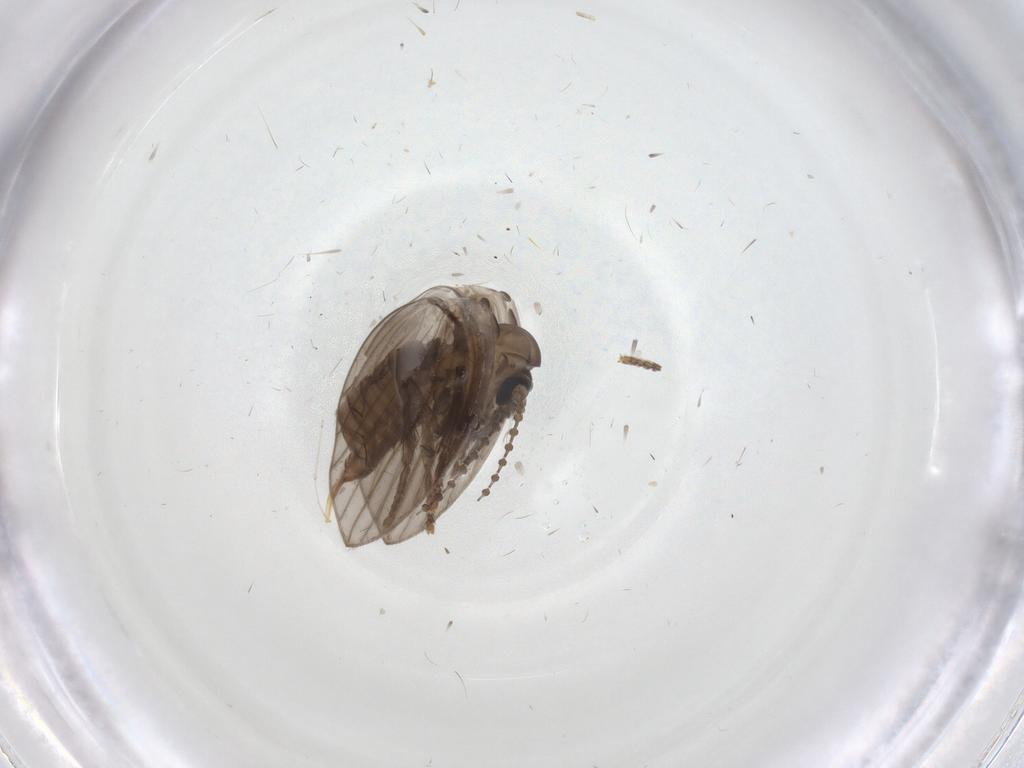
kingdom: Animalia
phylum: Arthropoda
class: Insecta
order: Diptera
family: Psychodidae
